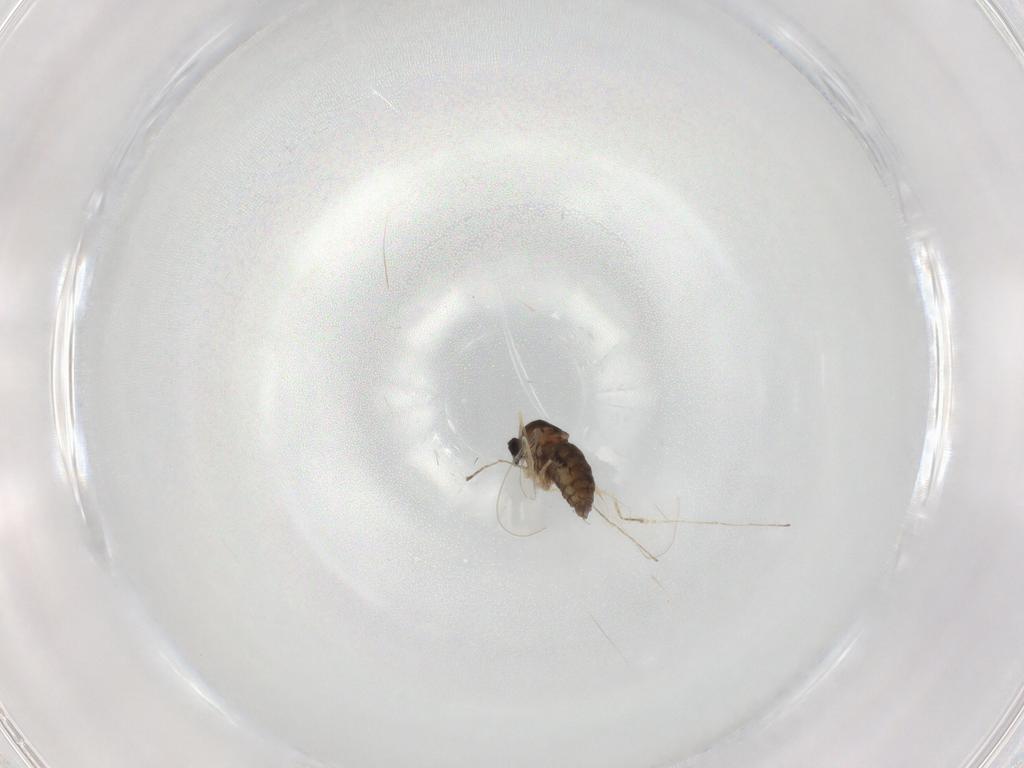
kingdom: Animalia
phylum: Arthropoda
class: Insecta
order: Diptera
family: Cecidomyiidae
